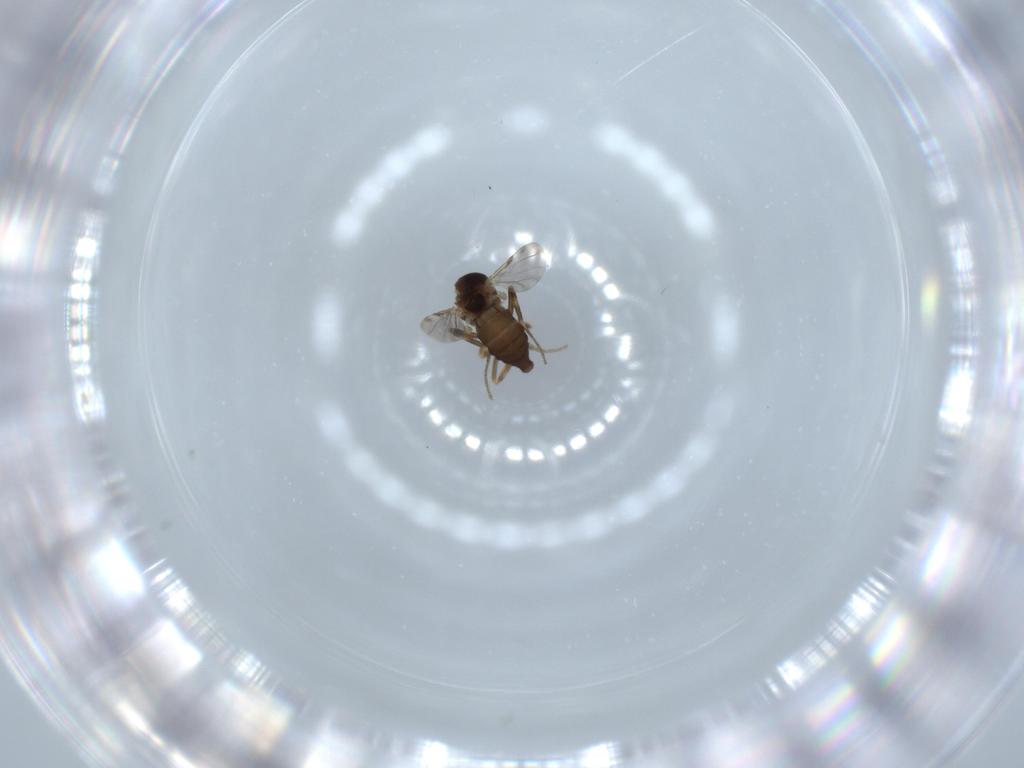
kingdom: Animalia
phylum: Arthropoda
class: Insecta
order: Diptera
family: Ceratopogonidae
